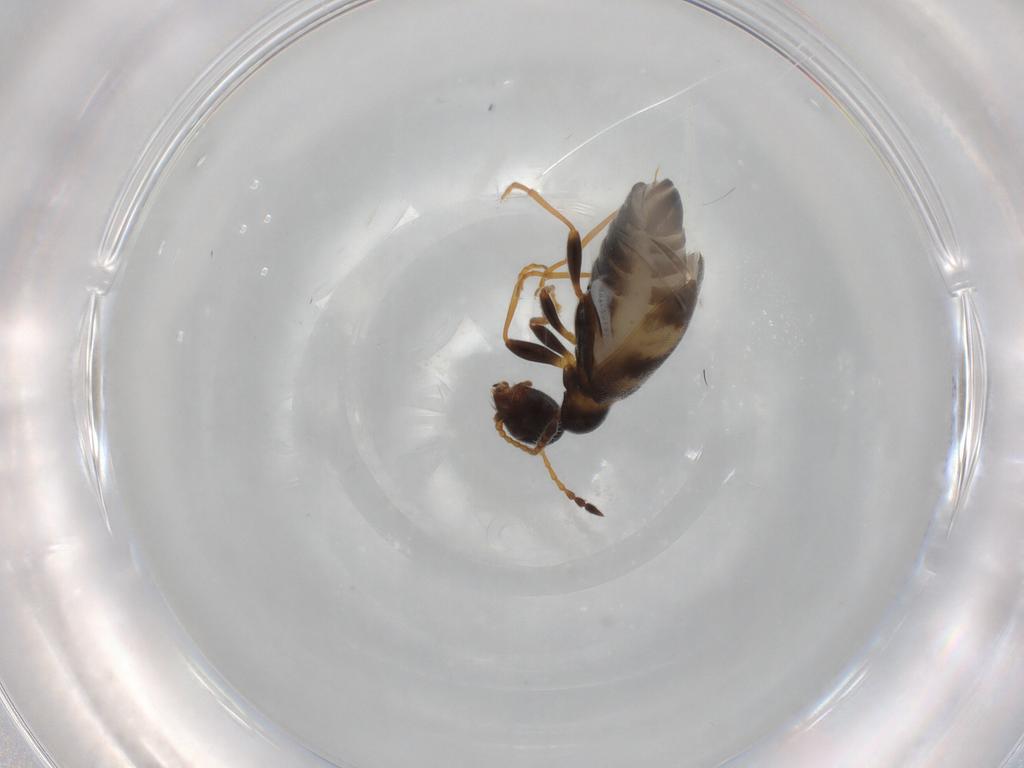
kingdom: Animalia
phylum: Arthropoda
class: Insecta
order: Coleoptera
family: Anthicidae
